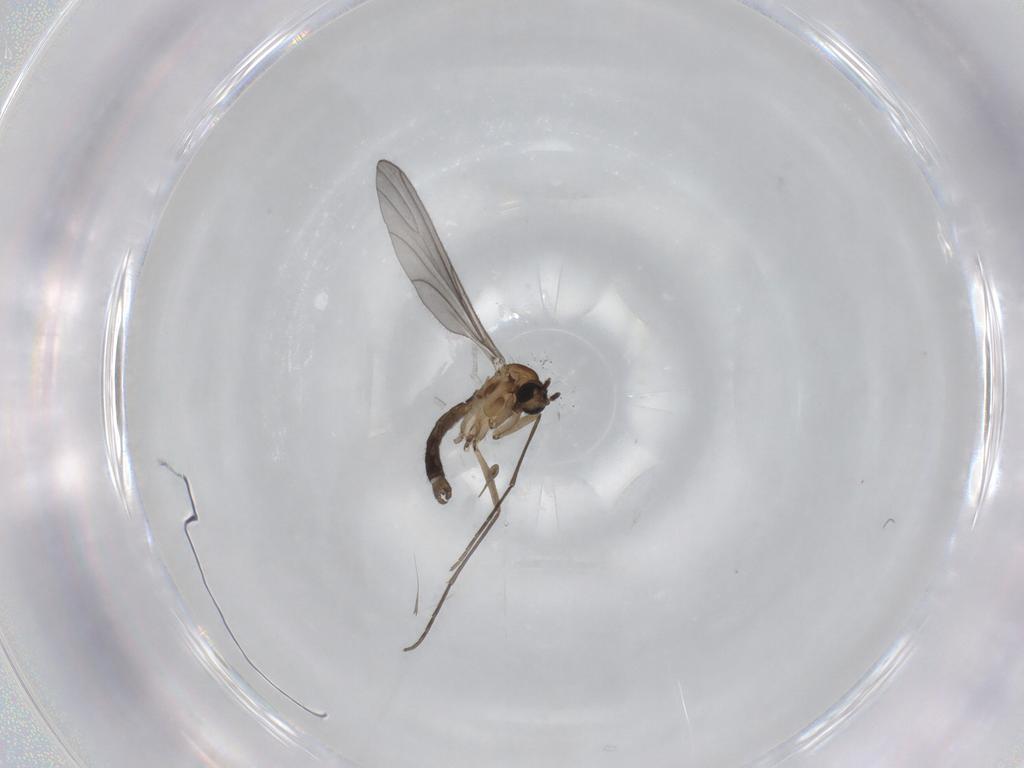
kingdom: Animalia
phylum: Arthropoda
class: Insecta
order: Diptera
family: Sciaridae
